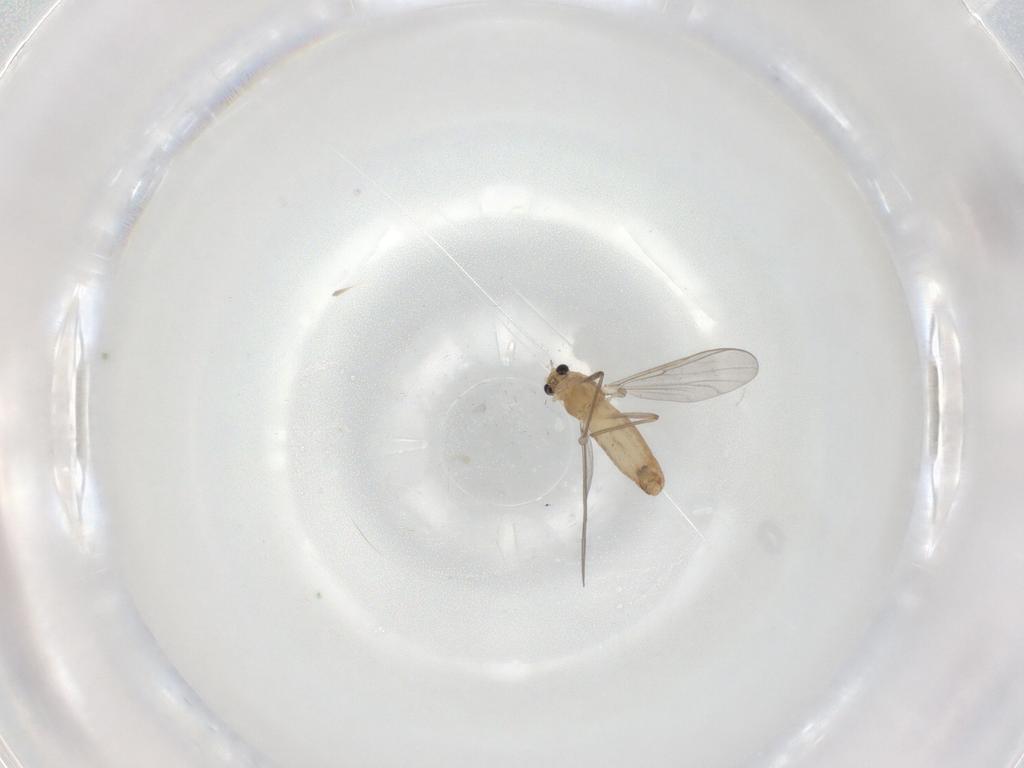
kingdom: Animalia
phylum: Arthropoda
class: Insecta
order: Diptera
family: Chironomidae
